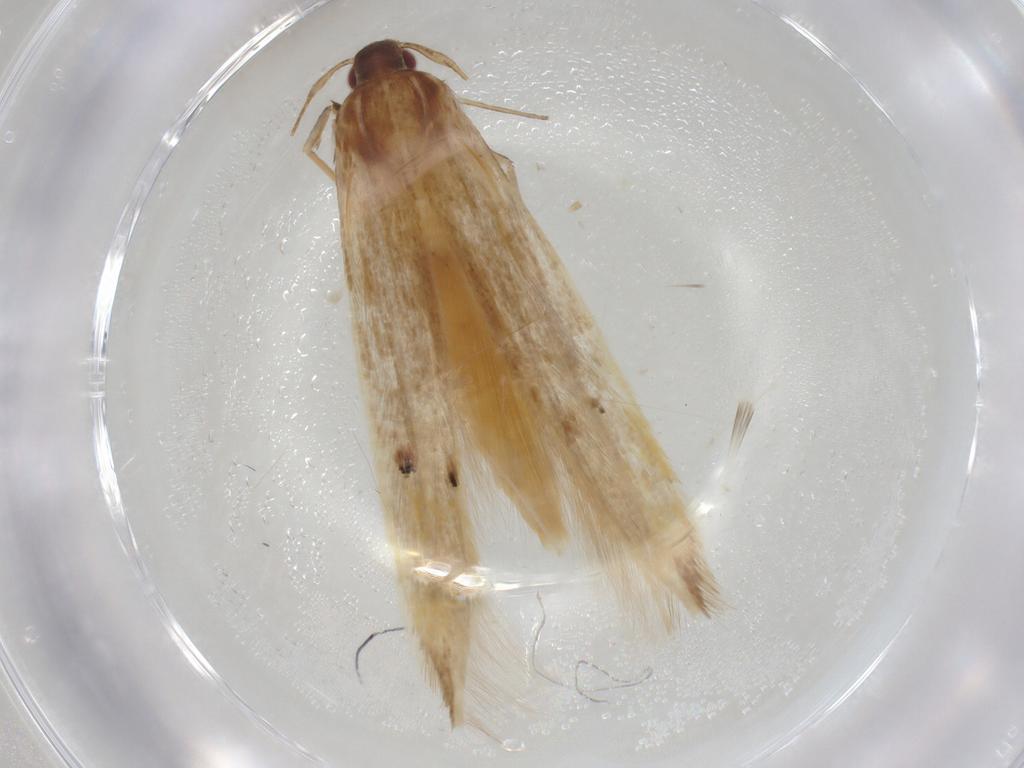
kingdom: Animalia
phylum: Arthropoda
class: Insecta
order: Lepidoptera
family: Cosmopterigidae
